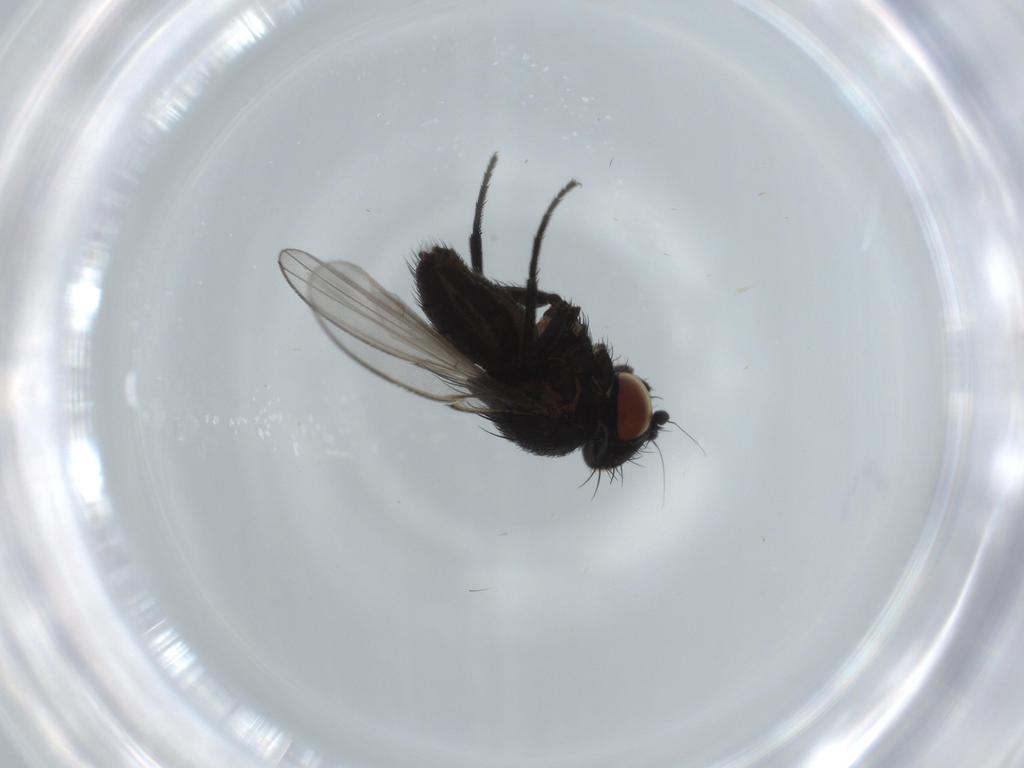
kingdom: Animalia
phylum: Arthropoda
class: Insecta
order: Diptera
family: Milichiidae
